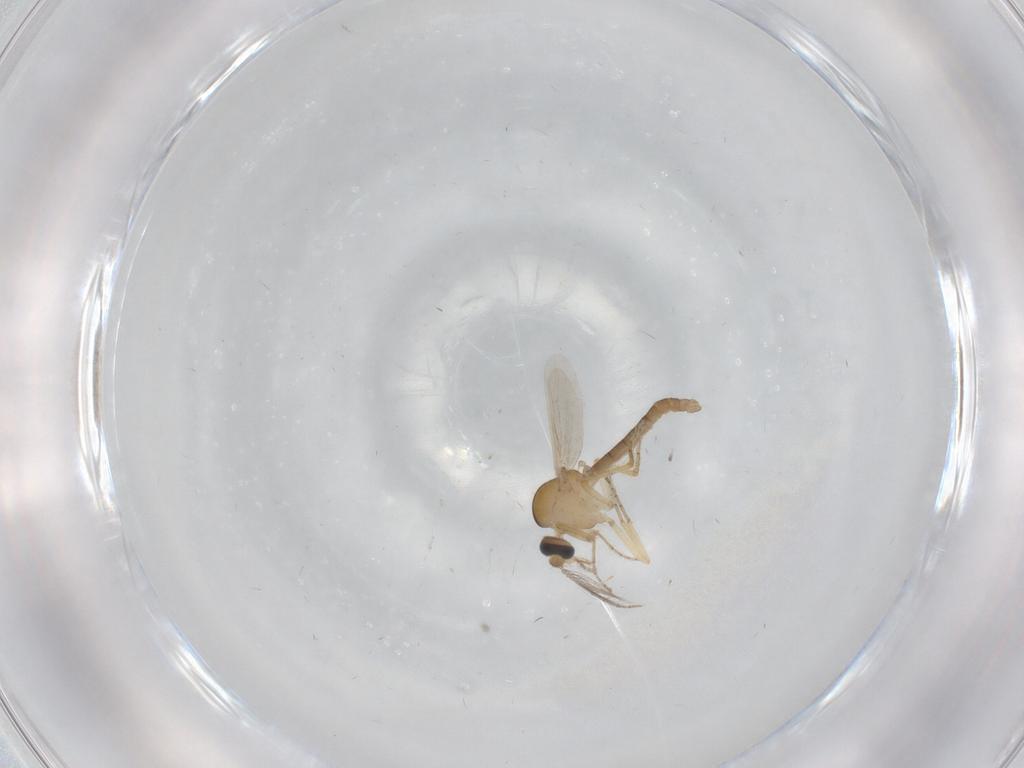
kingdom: Animalia
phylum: Arthropoda
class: Insecta
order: Diptera
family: Ceratopogonidae
